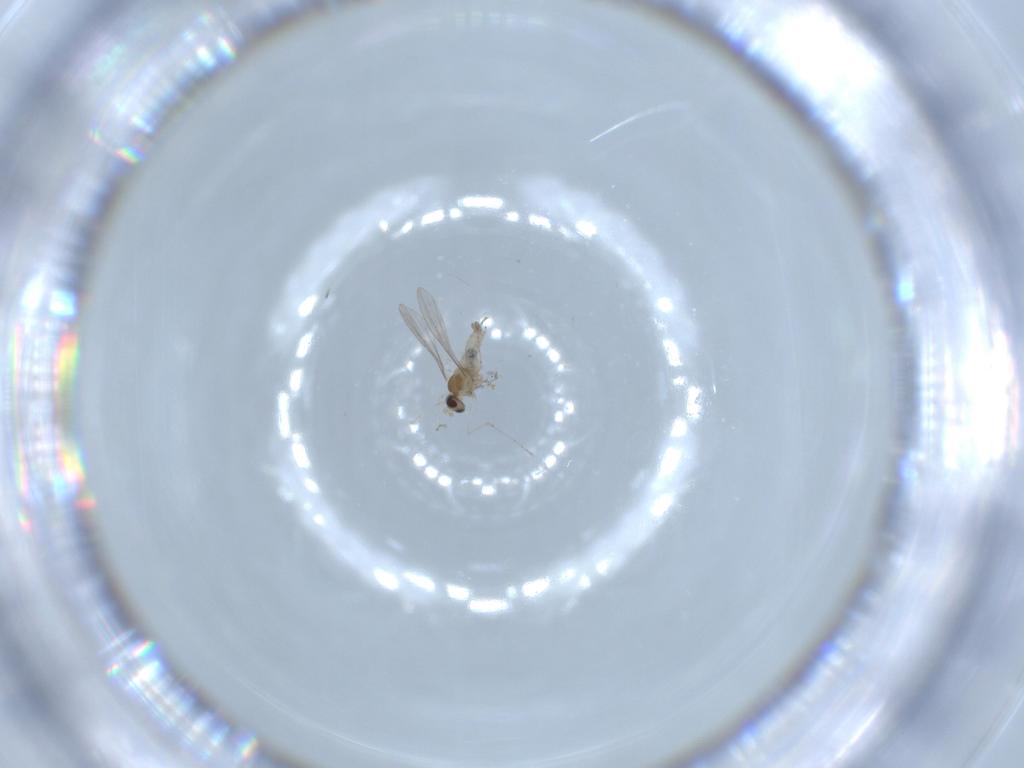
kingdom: Animalia
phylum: Arthropoda
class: Insecta
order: Diptera
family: Cecidomyiidae
